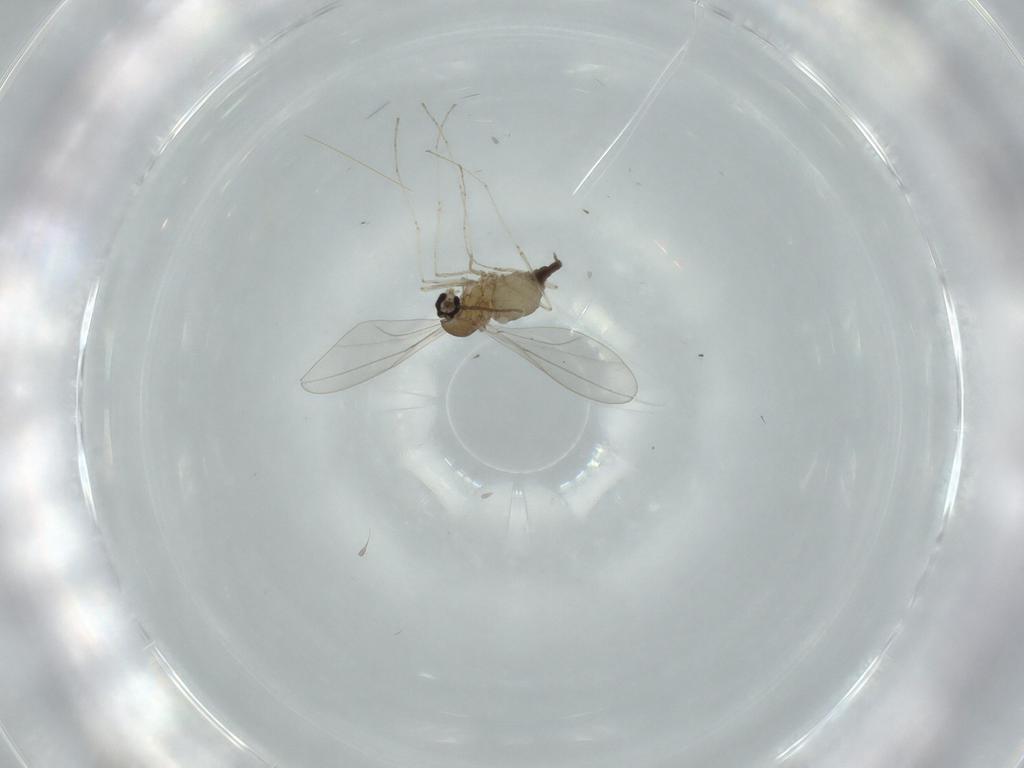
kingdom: Animalia
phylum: Arthropoda
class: Insecta
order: Diptera
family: Cecidomyiidae
